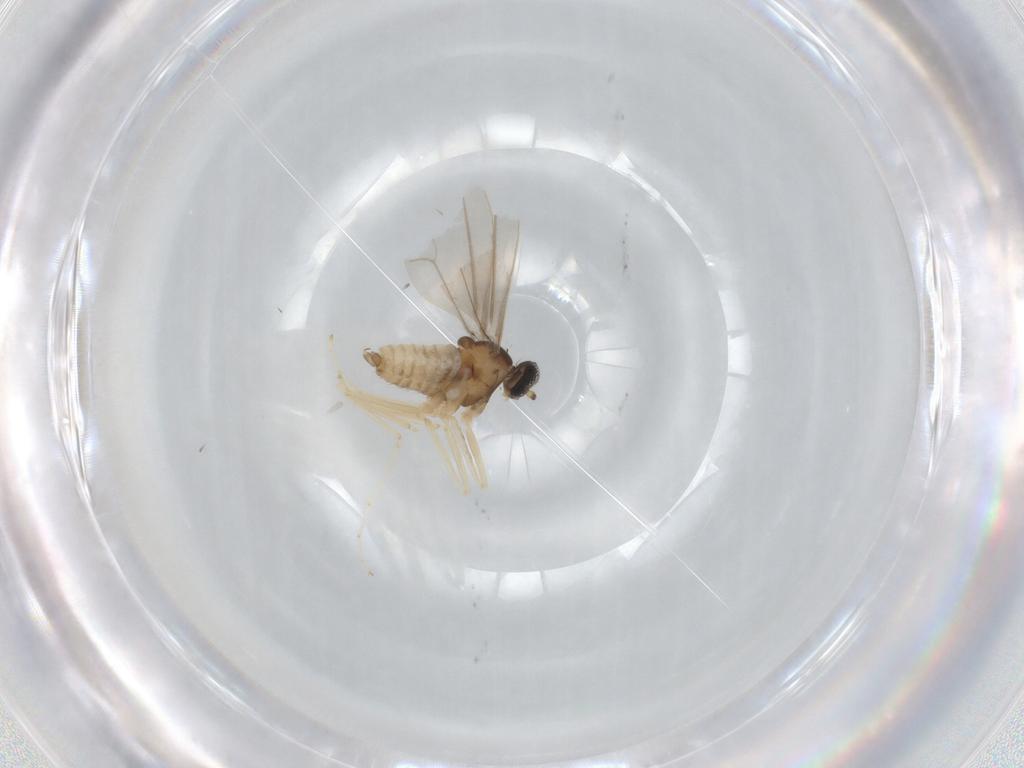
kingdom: Animalia
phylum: Arthropoda
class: Insecta
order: Diptera
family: Cecidomyiidae
